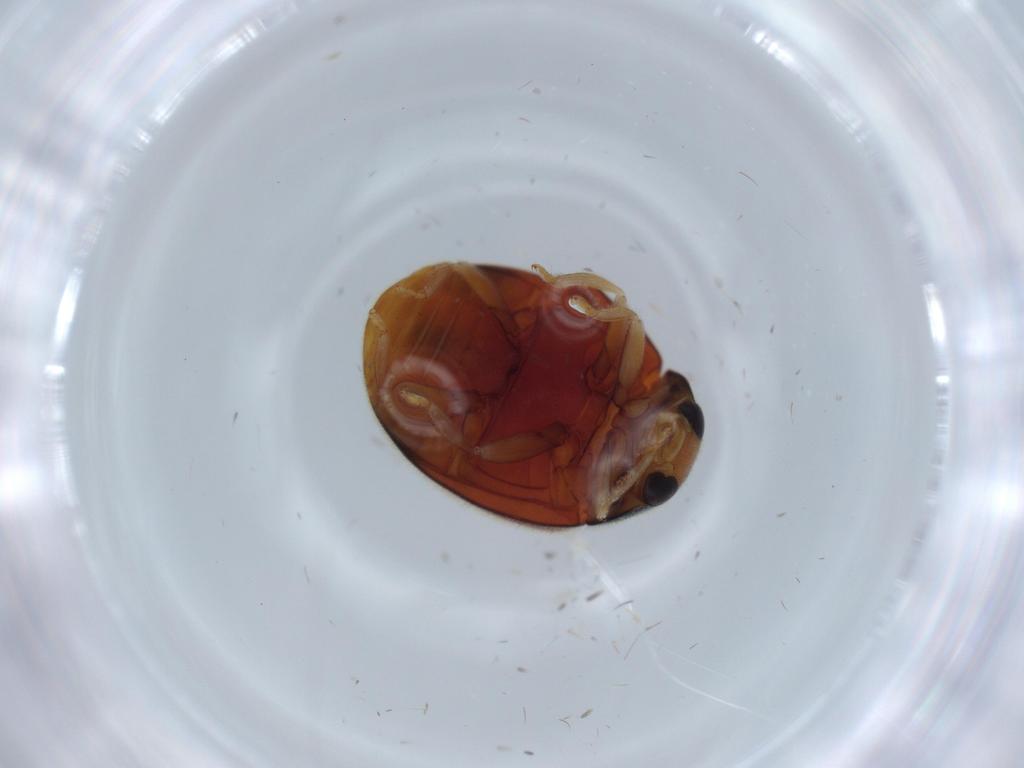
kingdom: Animalia
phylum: Arthropoda
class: Insecta
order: Coleoptera
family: Coccinellidae
